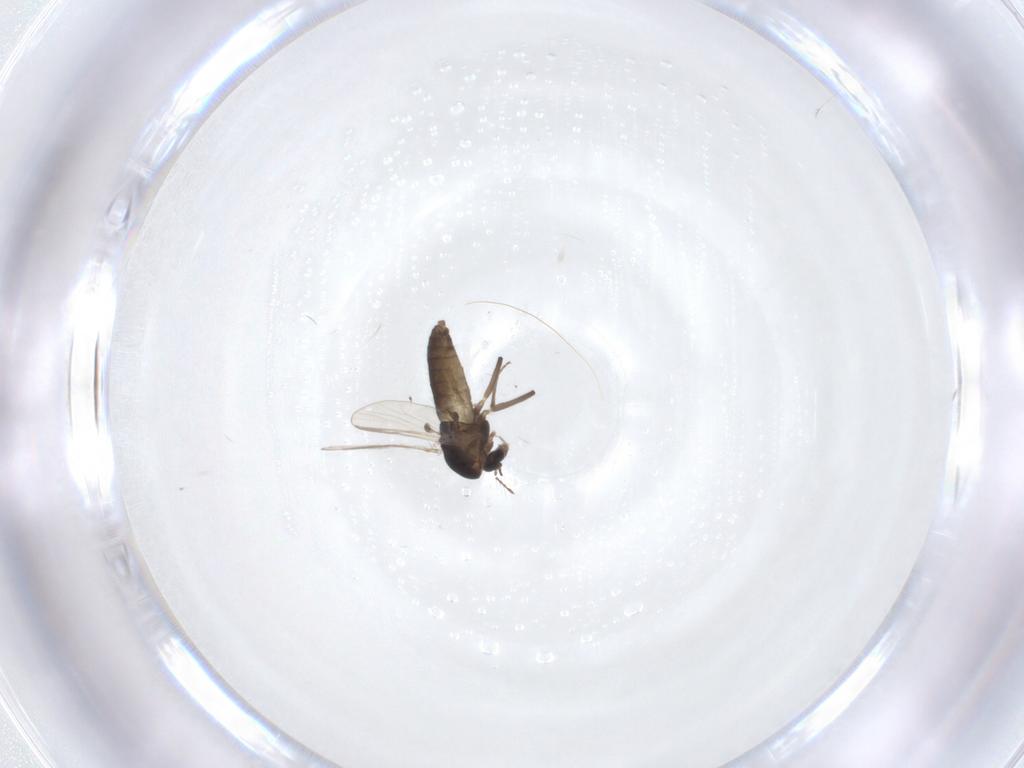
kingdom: Animalia
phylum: Arthropoda
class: Insecta
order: Diptera
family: Chironomidae
